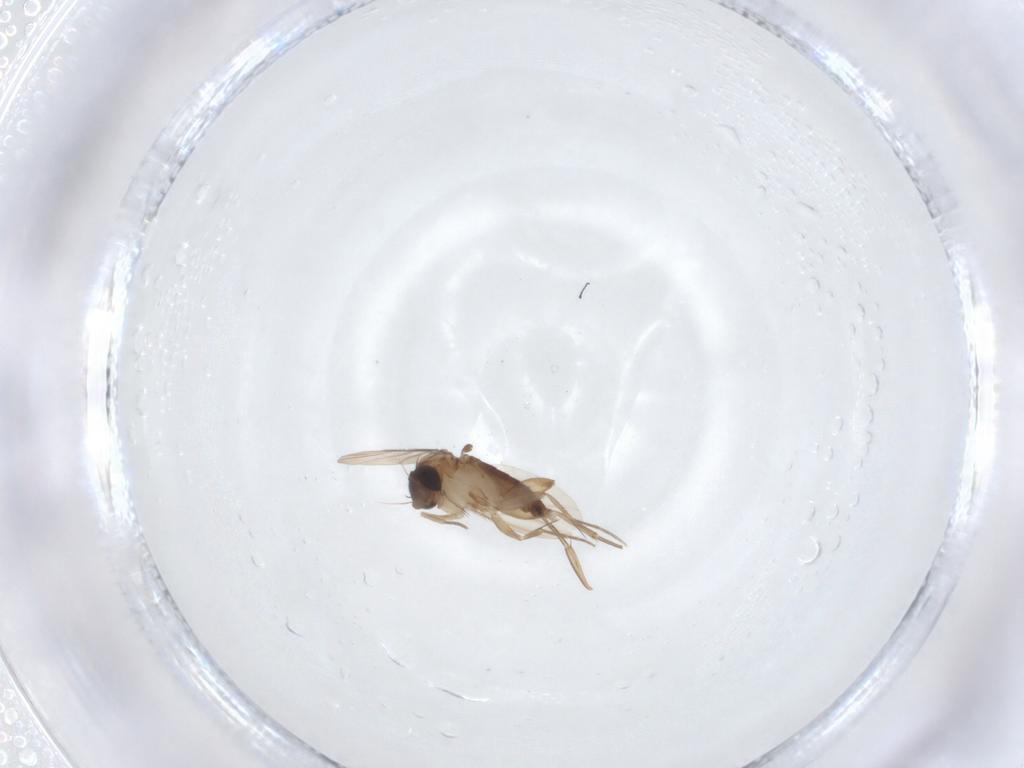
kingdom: Animalia
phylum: Arthropoda
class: Insecta
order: Diptera
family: Phoridae
